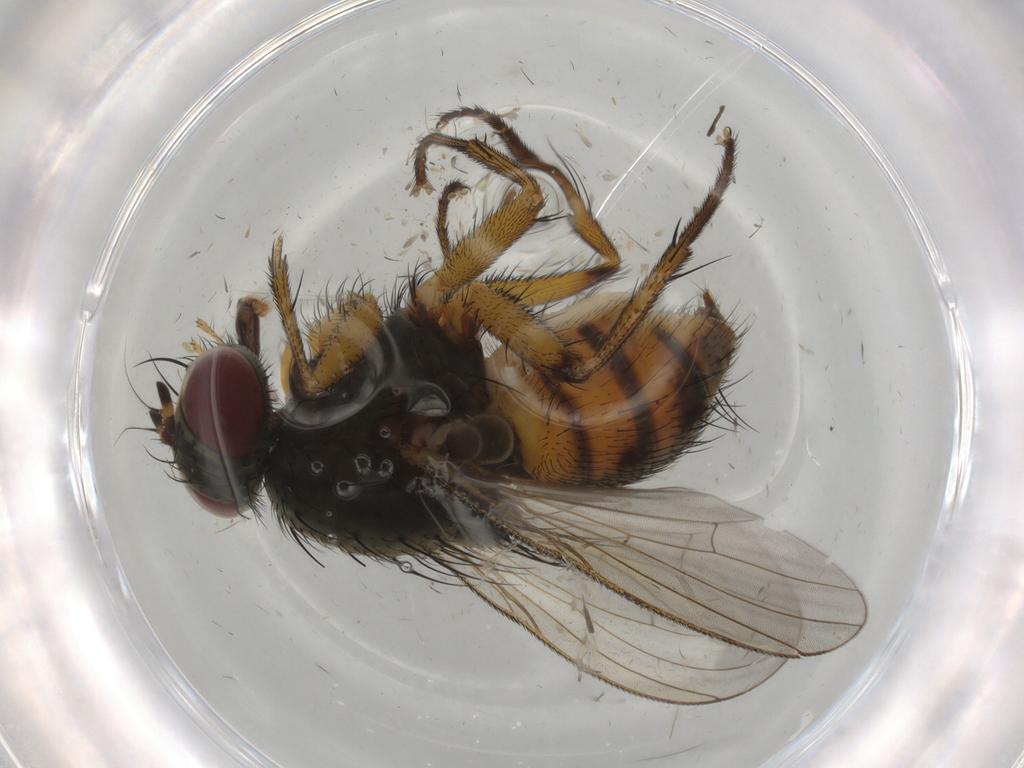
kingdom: Animalia
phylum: Arthropoda
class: Insecta
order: Diptera
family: Muscidae
